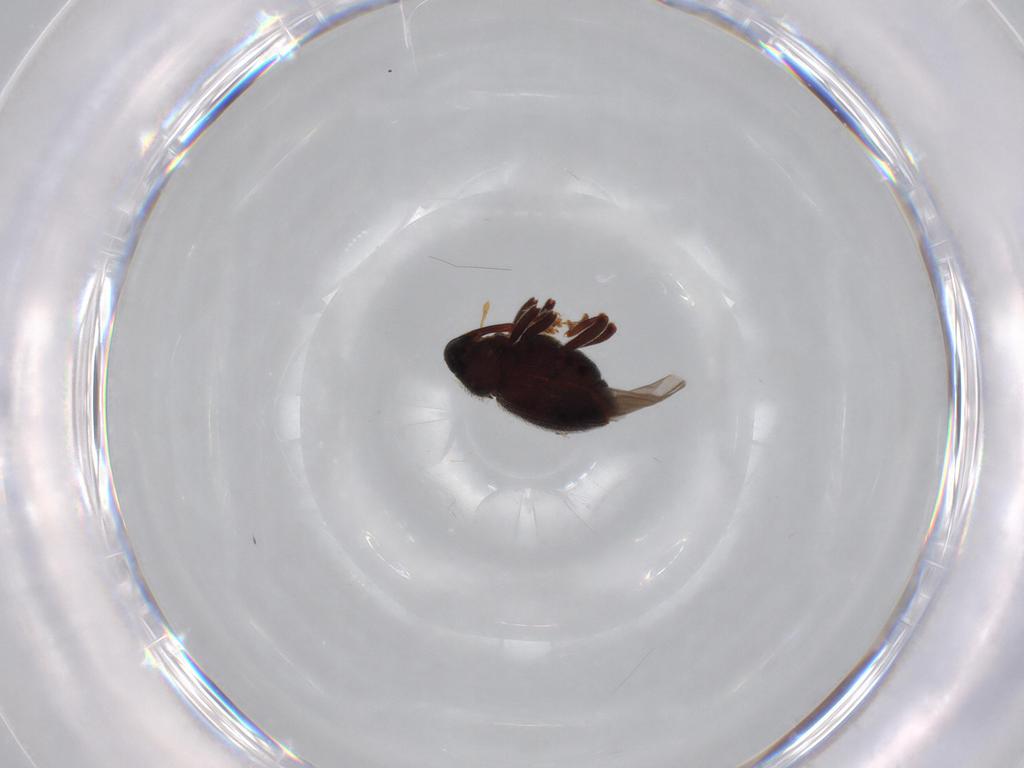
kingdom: Animalia
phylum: Arthropoda
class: Insecta
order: Coleoptera
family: Curculionidae
